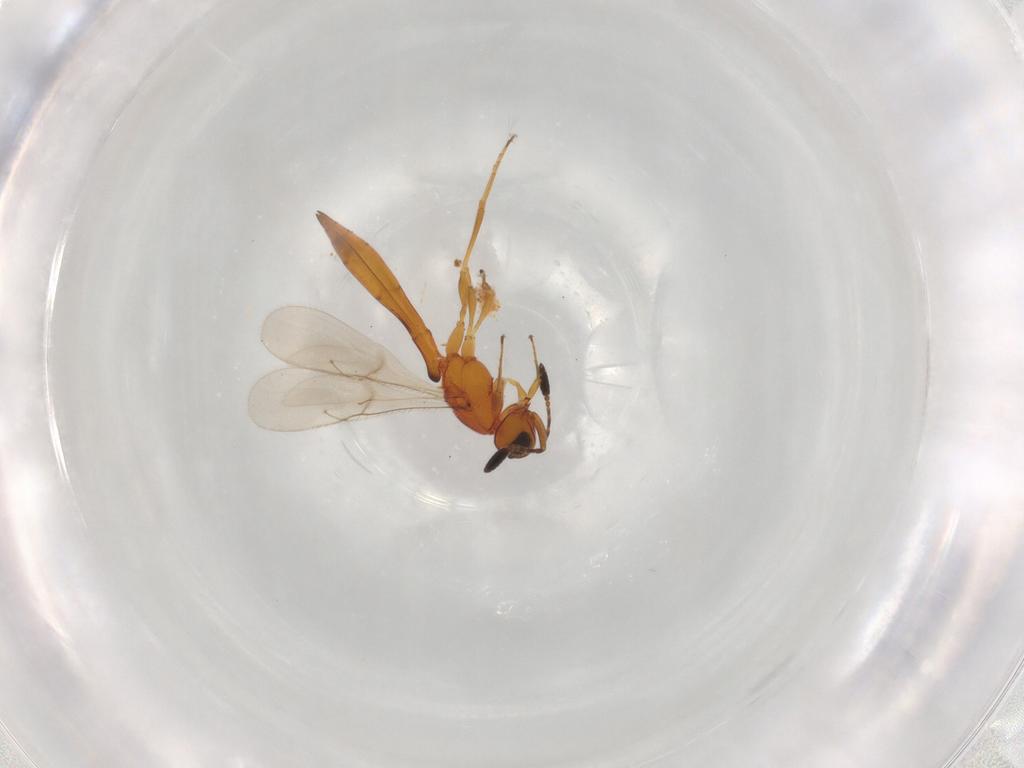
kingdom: Animalia
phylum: Arthropoda
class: Insecta
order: Hymenoptera
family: Scelionidae
